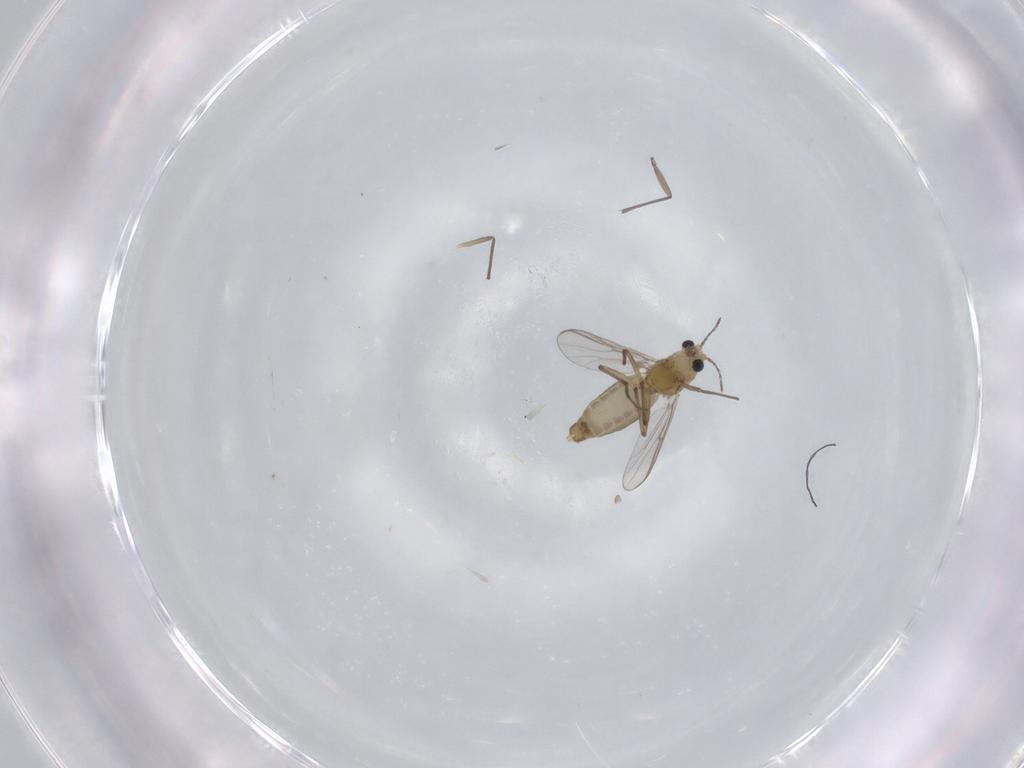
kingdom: Animalia
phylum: Arthropoda
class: Insecta
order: Diptera
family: Chironomidae
